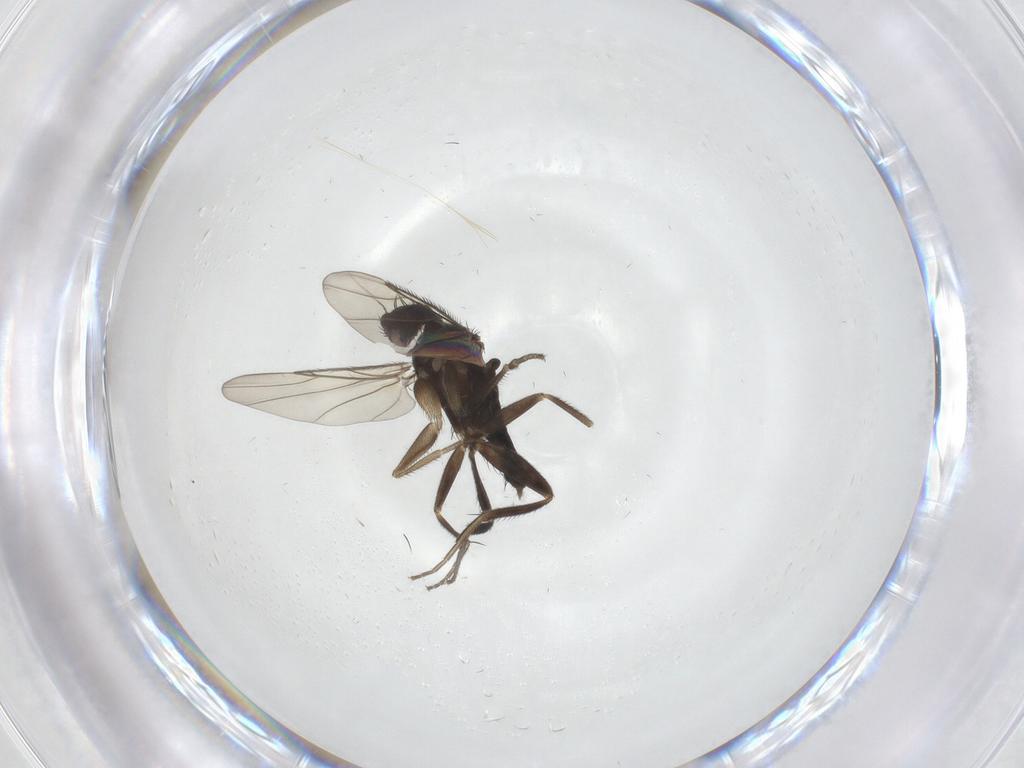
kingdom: Animalia
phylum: Arthropoda
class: Insecta
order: Diptera
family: Phoridae
